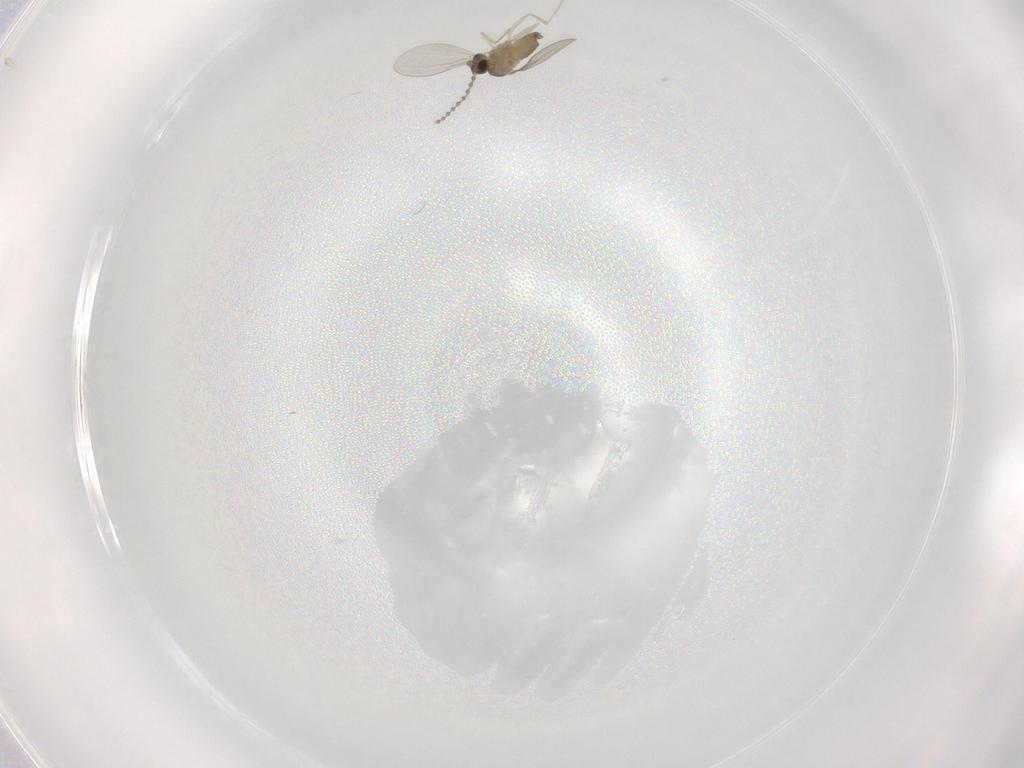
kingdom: Animalia
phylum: Arthropoda
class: Insecta
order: Diptera
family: Cecidomyiidae
